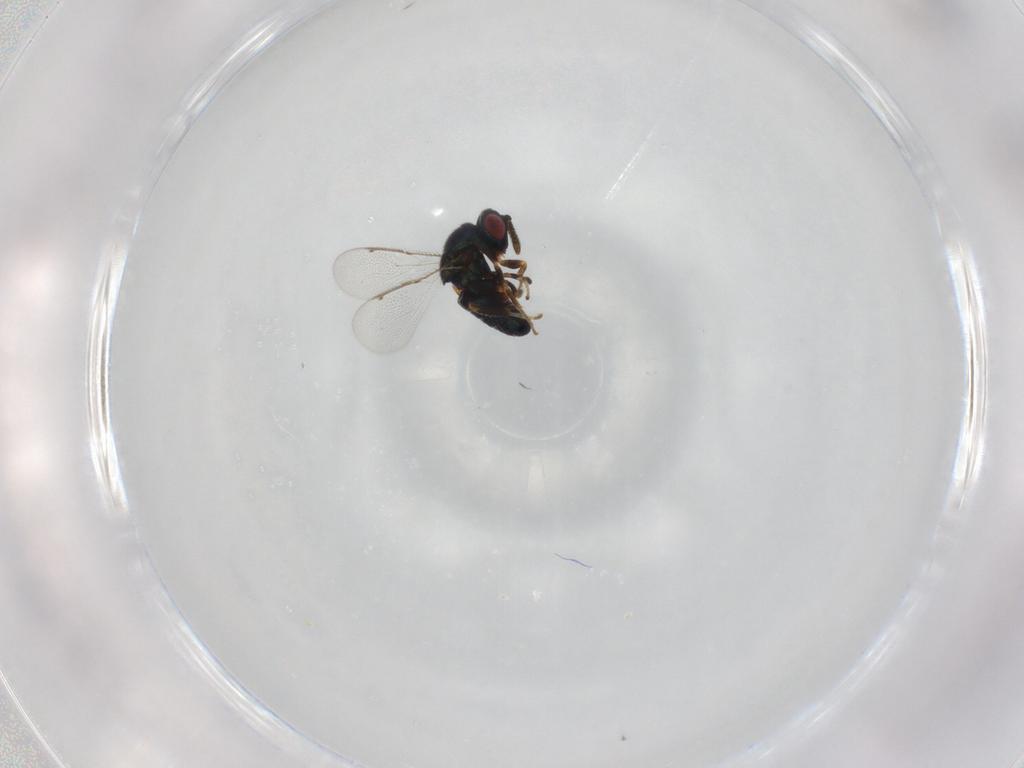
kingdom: Animalia
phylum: Arthropoda
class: Insecta
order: Hymenoptera
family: Ormyridae
